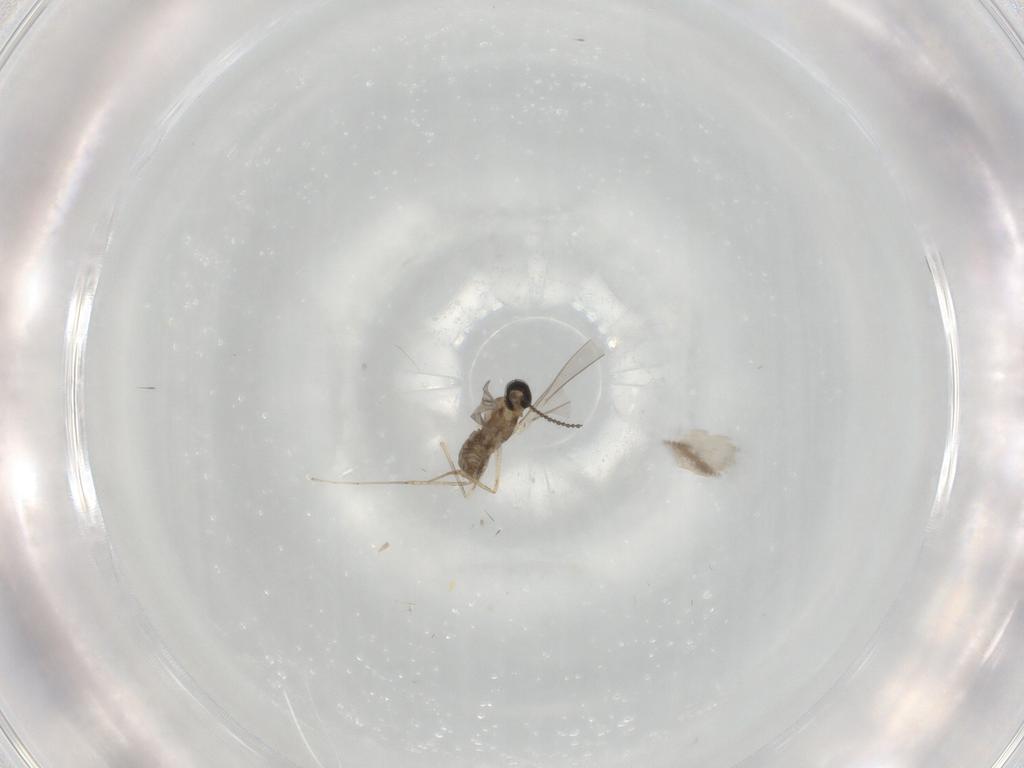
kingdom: Animalia
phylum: Arthropoda
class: Insecta
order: Diptera
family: Cecidomyiidae
